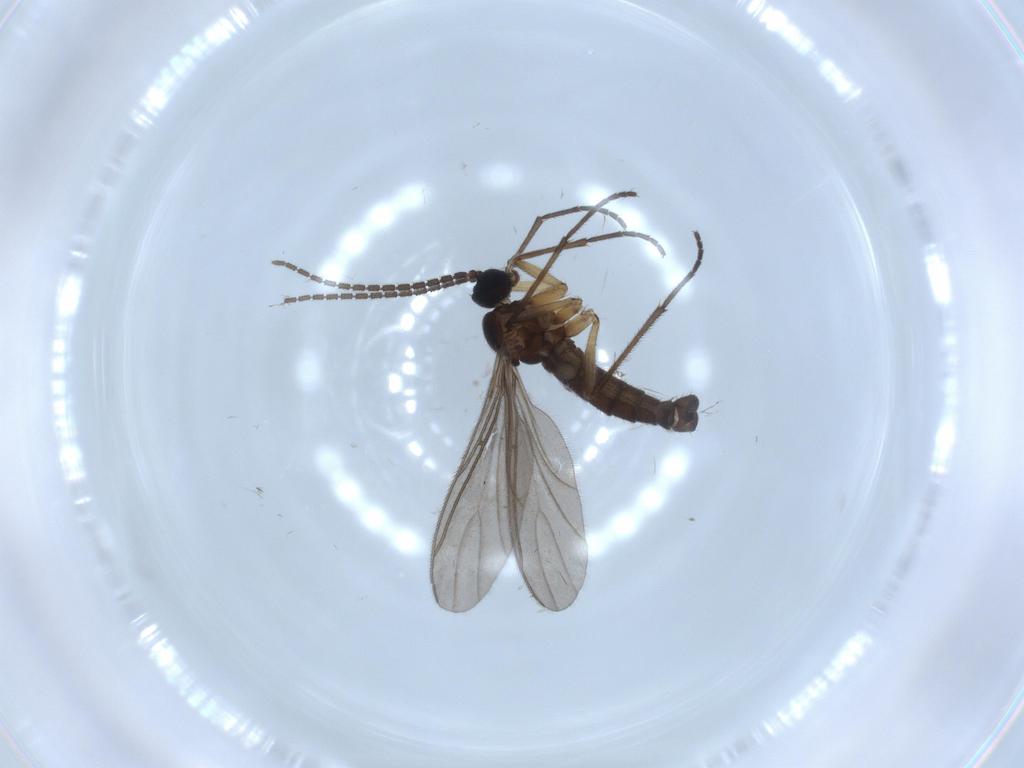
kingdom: Animalia
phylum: Arthropoda
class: Insecta
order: Diptera
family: Sciaridae
